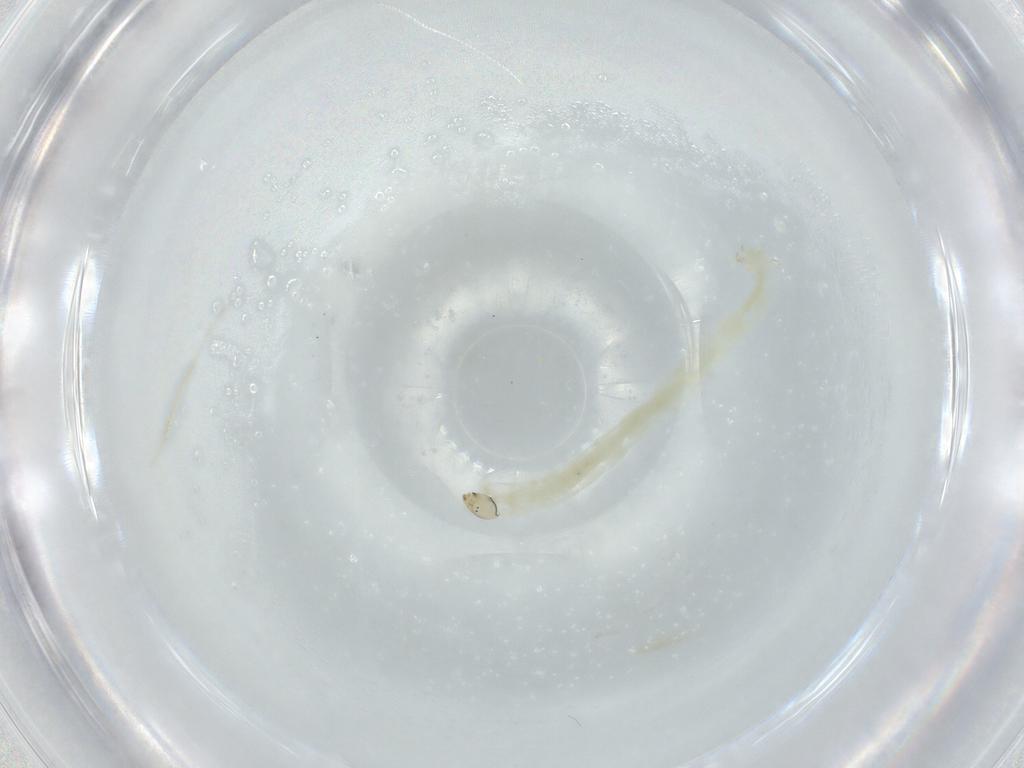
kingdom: Animalia
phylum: Arthropoda
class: Insecta
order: Diptera
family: Chironomidae
